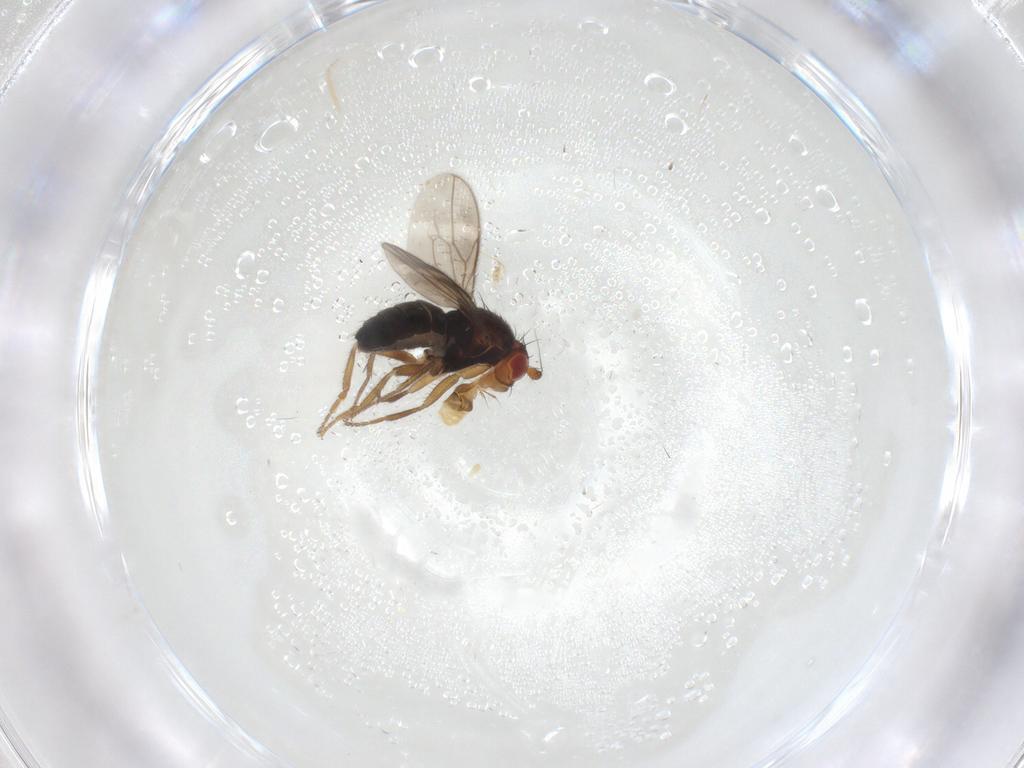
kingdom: Animalia
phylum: Arthropoda
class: Insecta
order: Diptera
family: Sphaeroceridae
